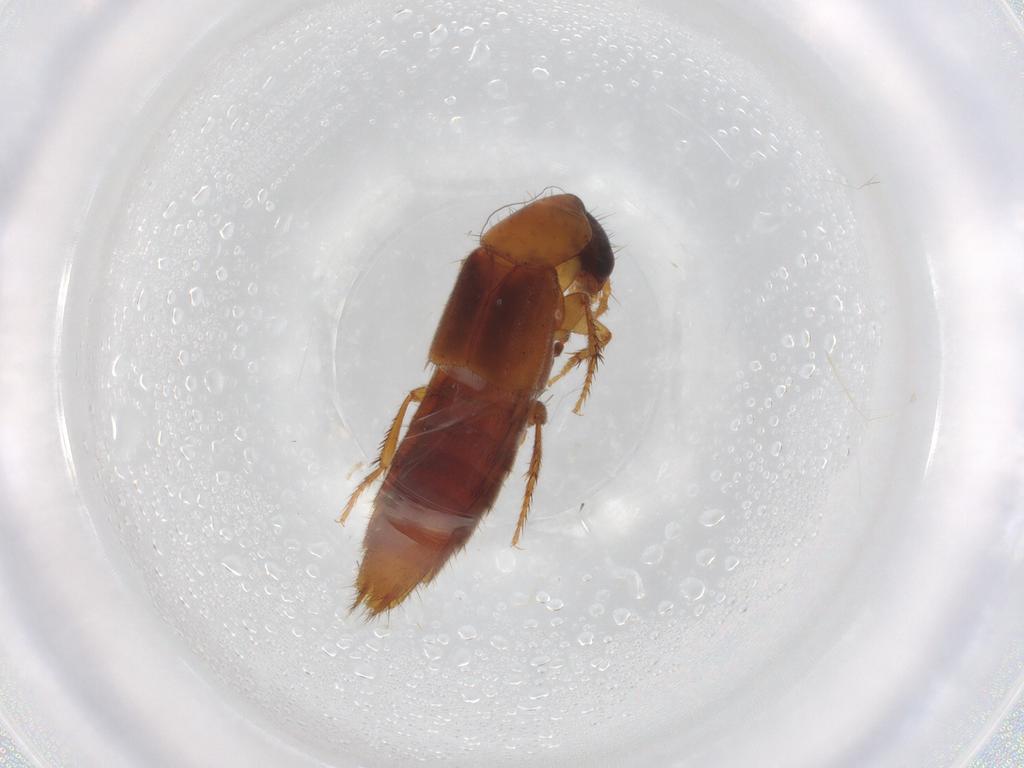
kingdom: Animalia
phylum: Arthropoda
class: Insecta
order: Coleoptera
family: Staphylinidae
